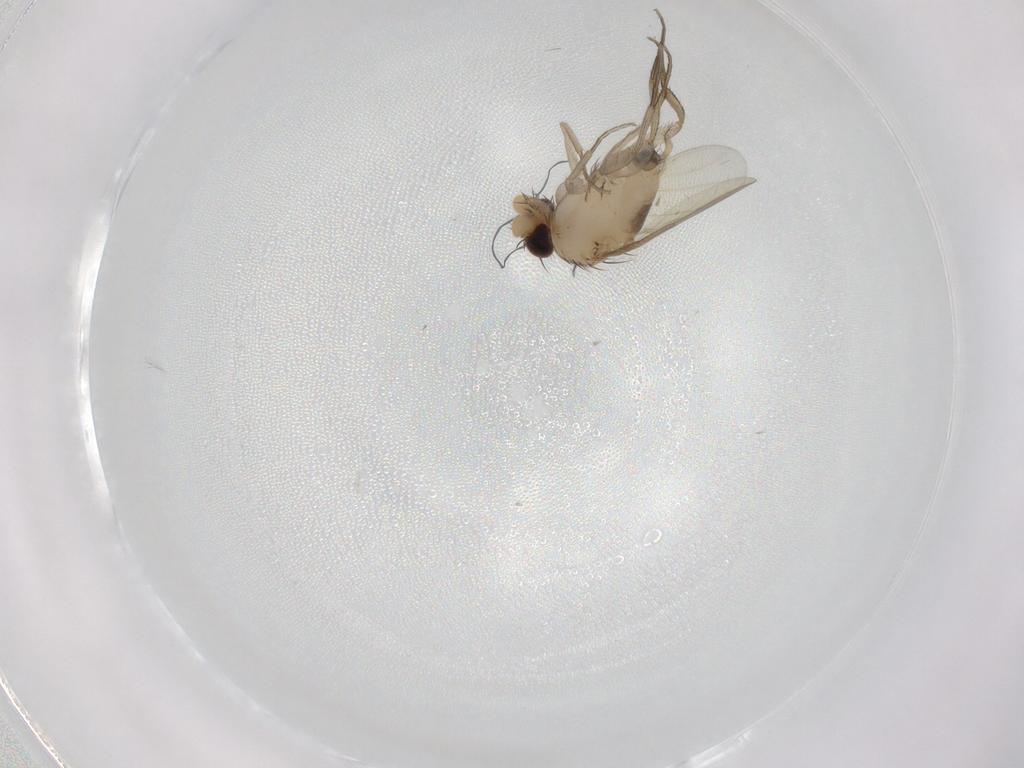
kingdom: Animalia
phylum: Arthropoda
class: Insecta
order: Diptera
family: Phoridae
